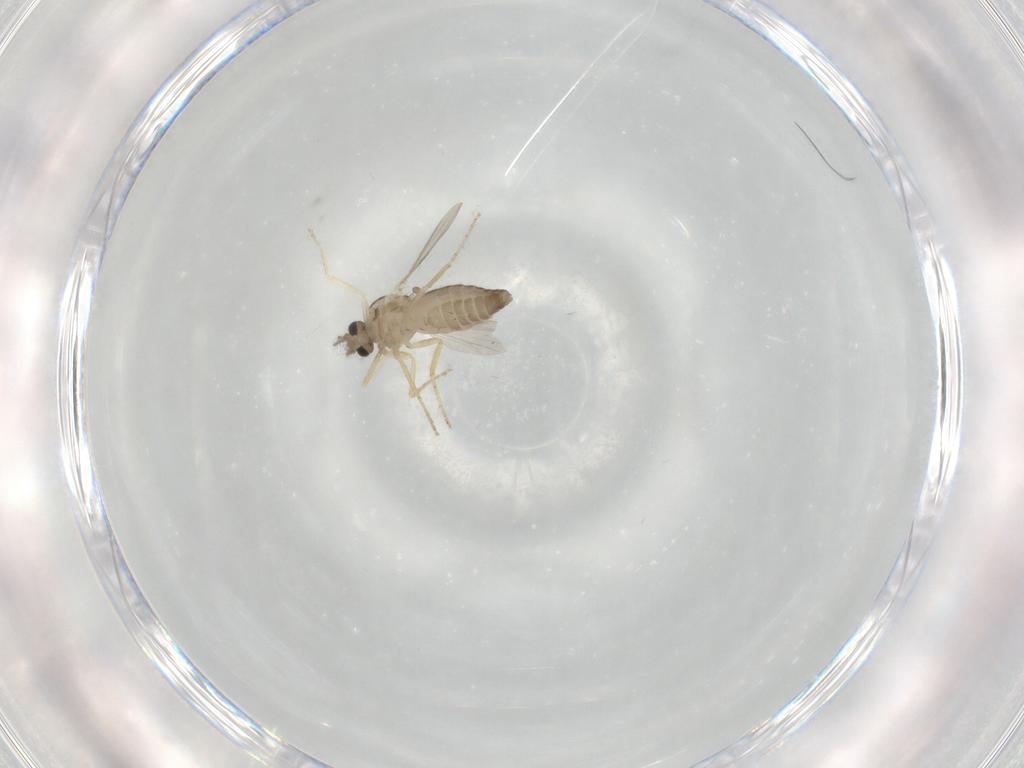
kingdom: Animalia
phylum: Arthropoda
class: Insecta
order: Diptera
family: Ceratopogonidae
